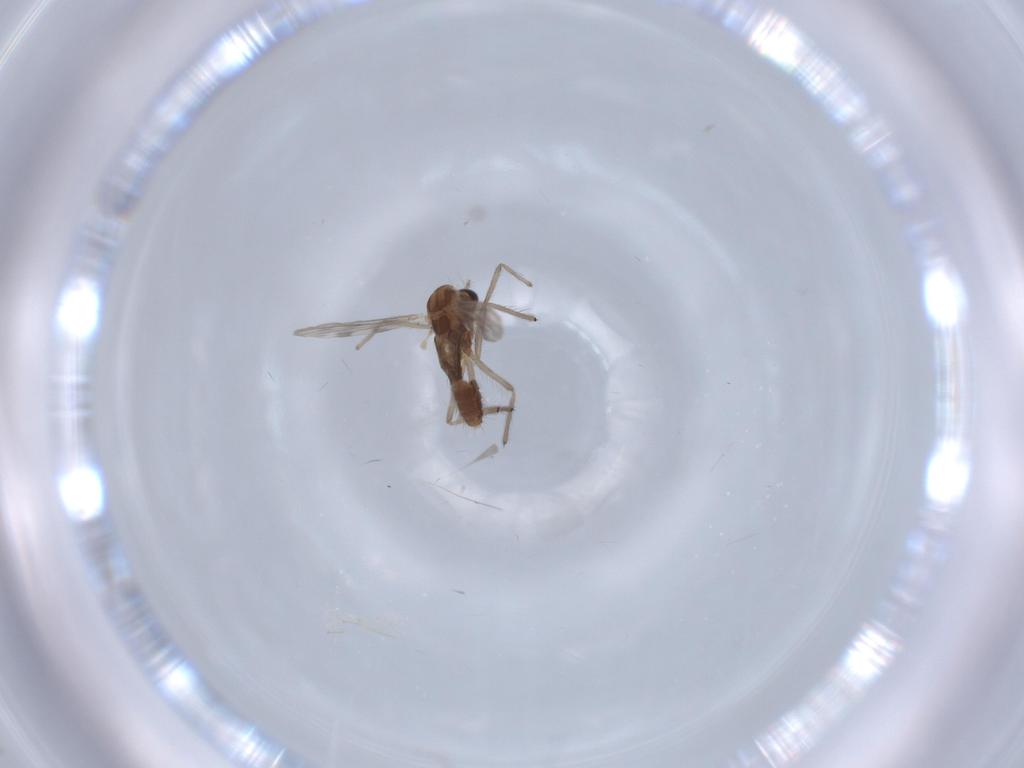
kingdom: Animalia
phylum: Arthropoda
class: Insecta
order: Diptera
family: Chironomidae
